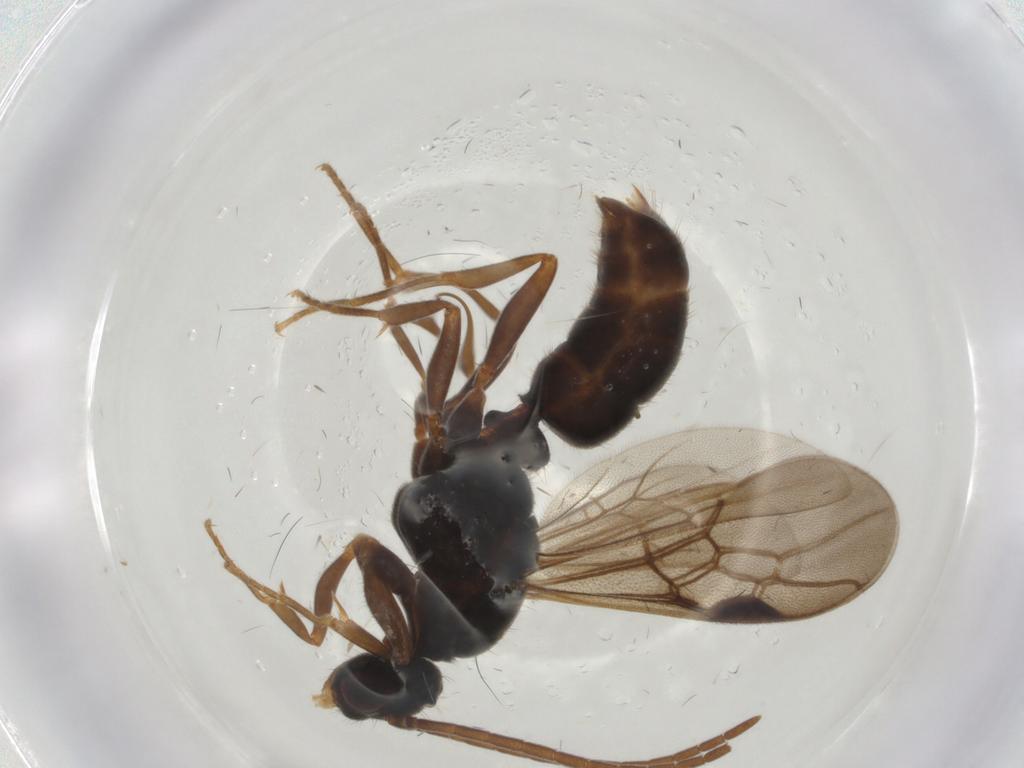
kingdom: Animalia
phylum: Arthropoda
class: Insecta
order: Hymenoptera
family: Formicidae
